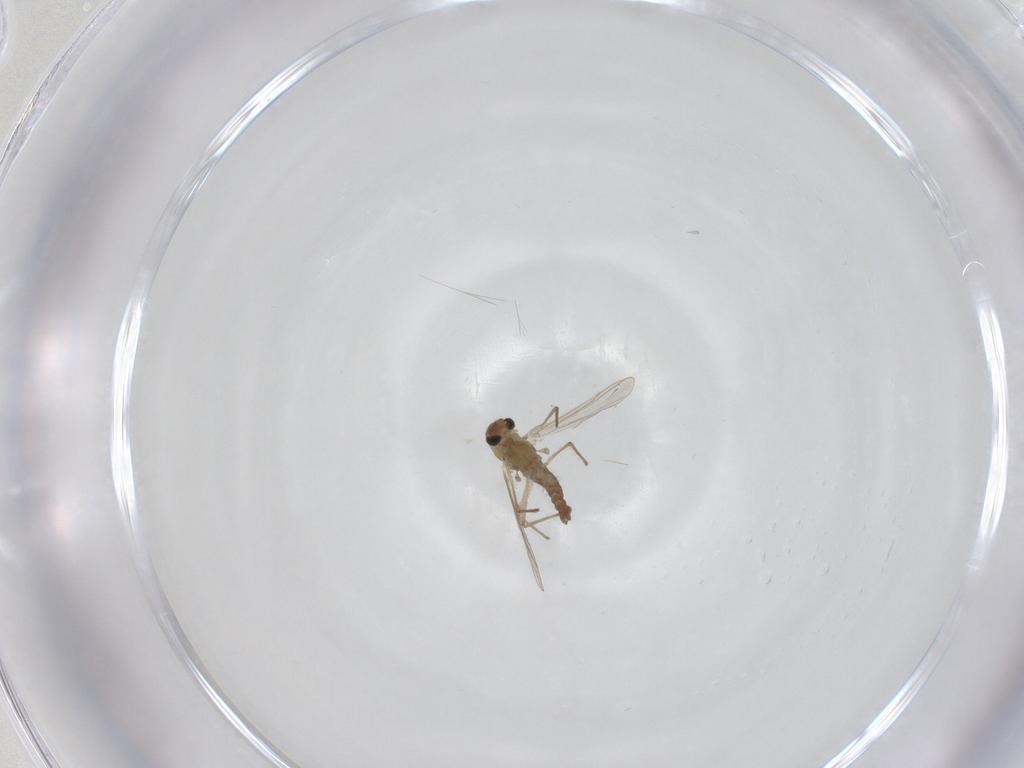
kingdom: Animalia
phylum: Arthropoda
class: Insecta
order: Diptera
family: Chironomidae
